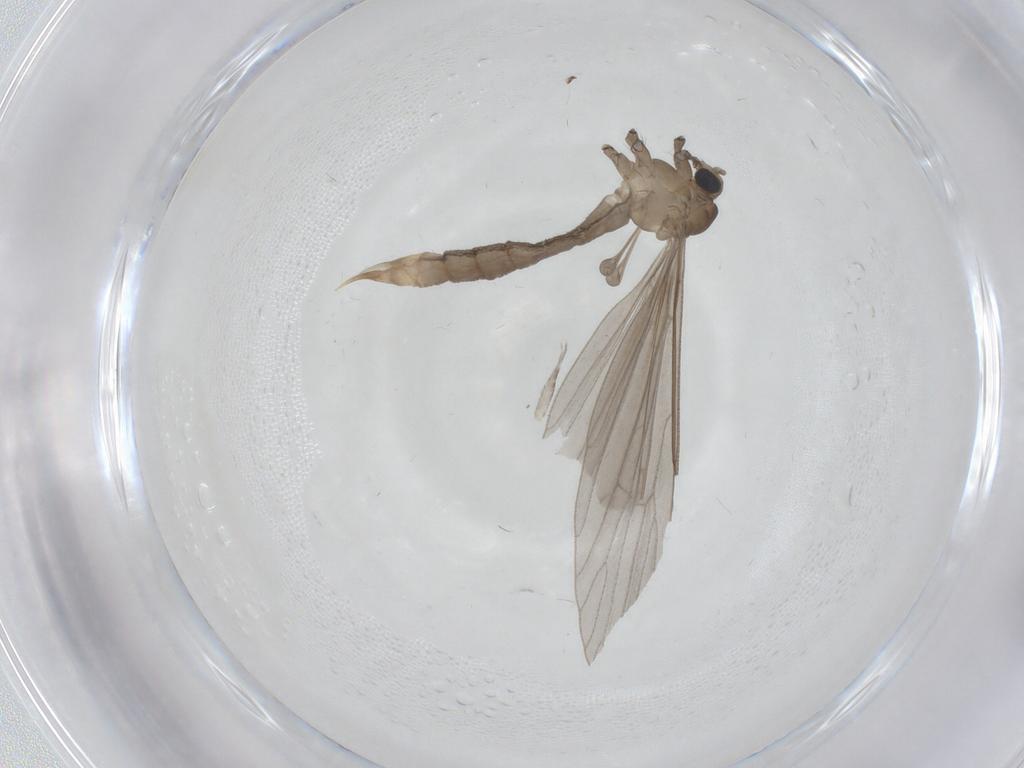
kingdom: Animalia
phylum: Arthropoda
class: Insecta
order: Diptera
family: Limoniidae
